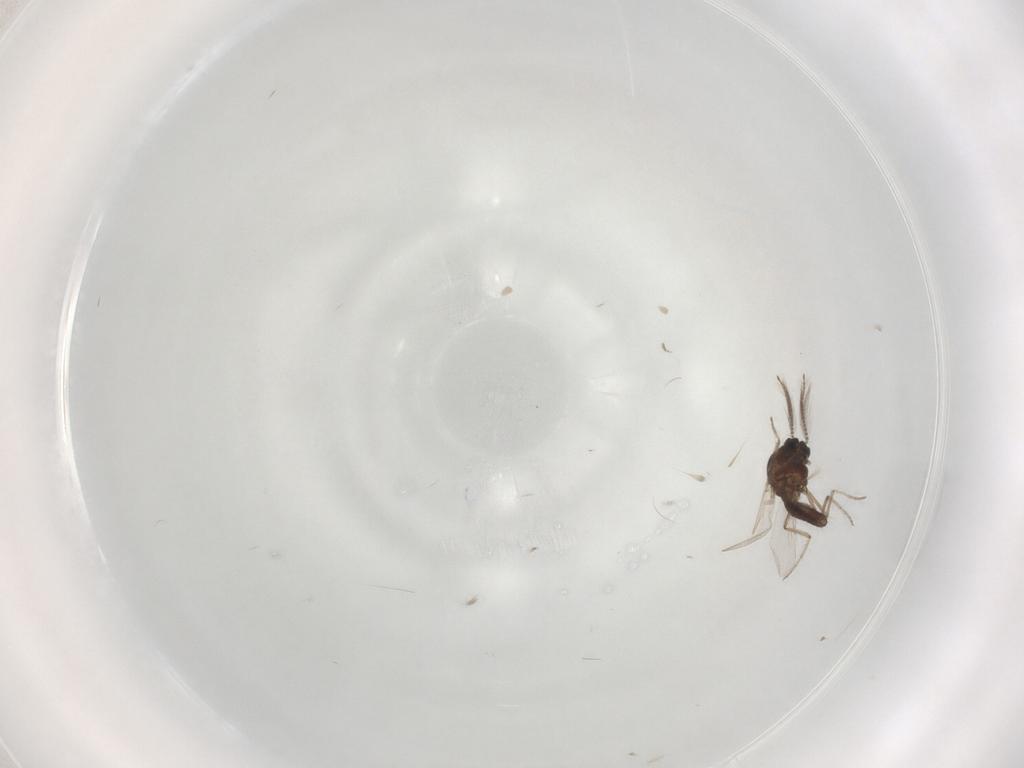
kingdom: Animalia
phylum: Arthropoda
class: Insecta
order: Diptera
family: Ceratopogonidae
